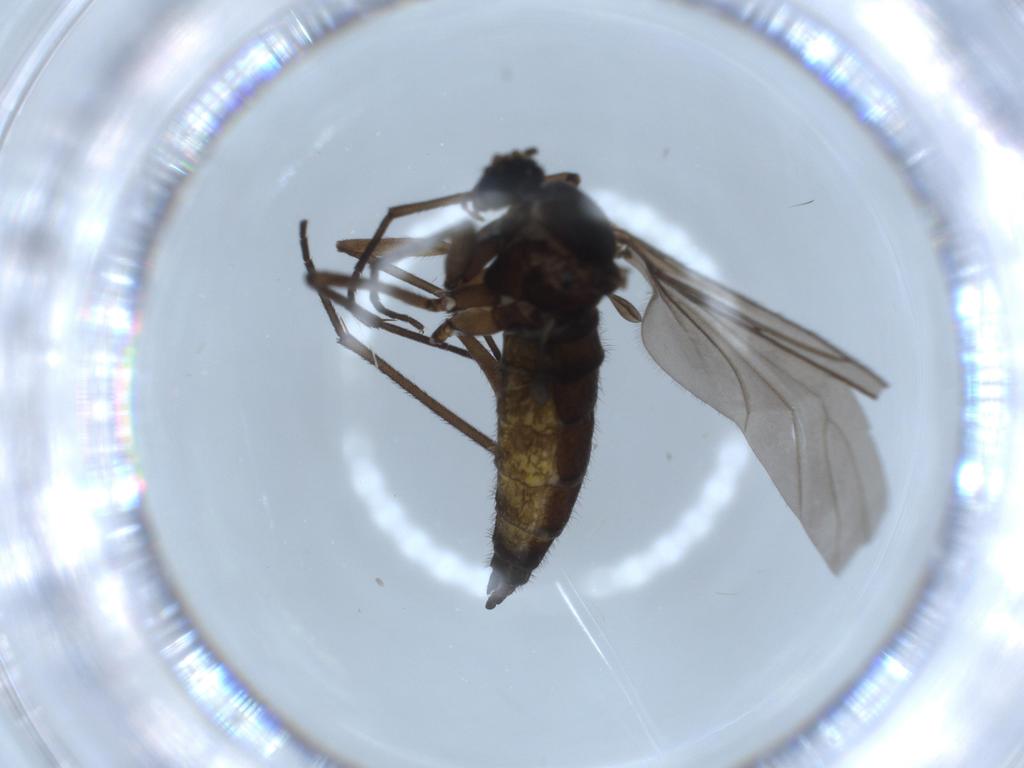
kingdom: Animalia
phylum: Arthropoda
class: Insecta
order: Diptera
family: Sciaridae
